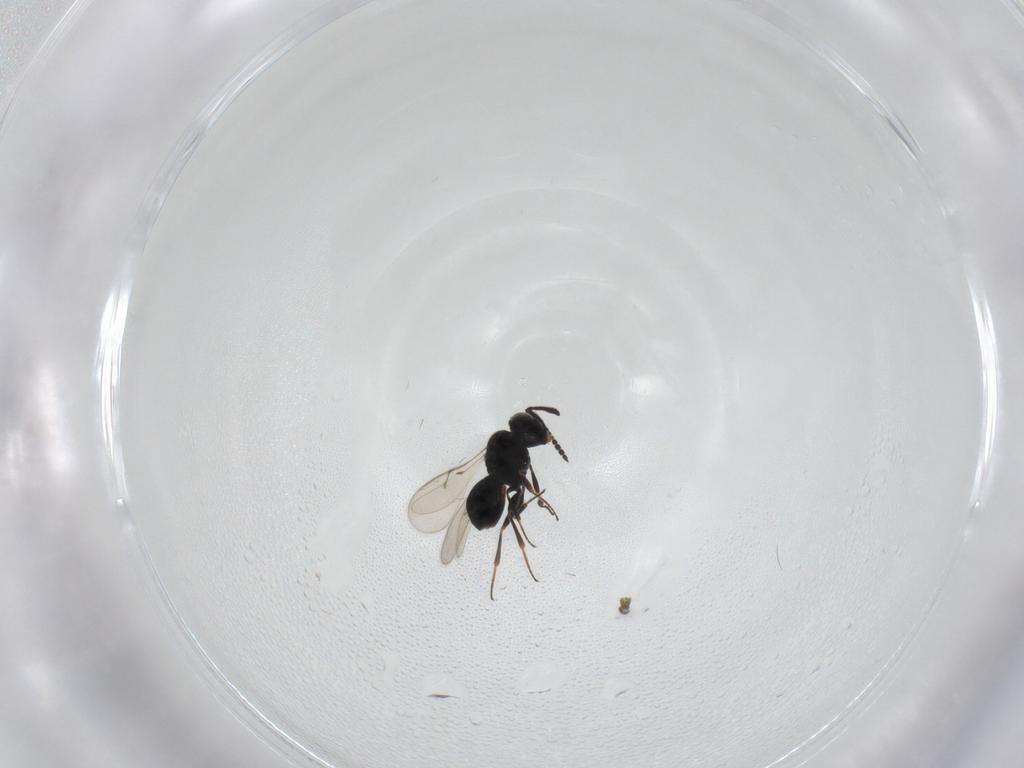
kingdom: Animalia
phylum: Arthropoda
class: Insecta
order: Hymenoptera
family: Scelionidae
